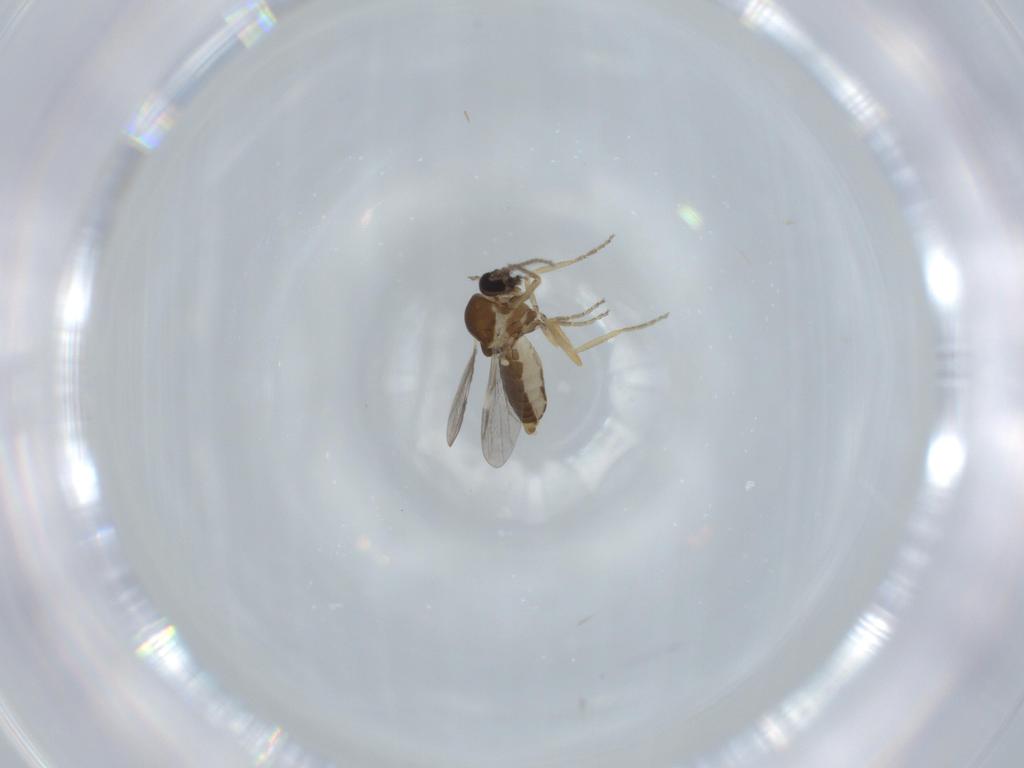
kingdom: Animalia
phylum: Arthropoda
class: Insecta
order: Diptera
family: Ceratopogonidae
